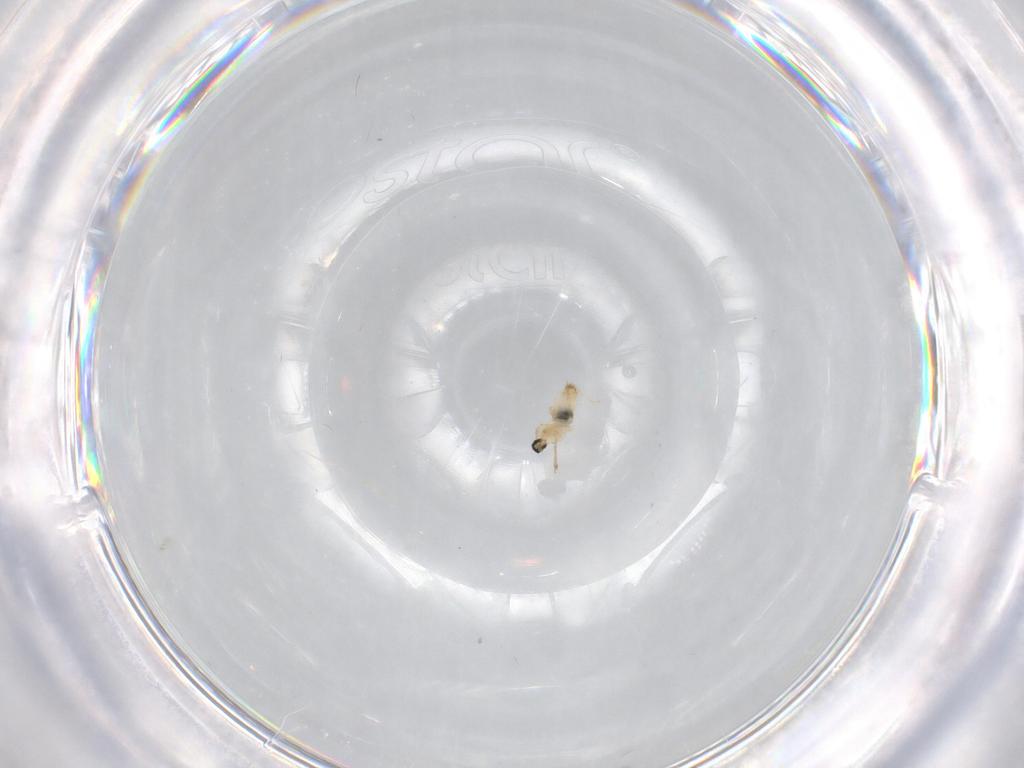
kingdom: Animalia
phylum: Arthropoda
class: Insecta
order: Diptera
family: Cecidomyiidae
